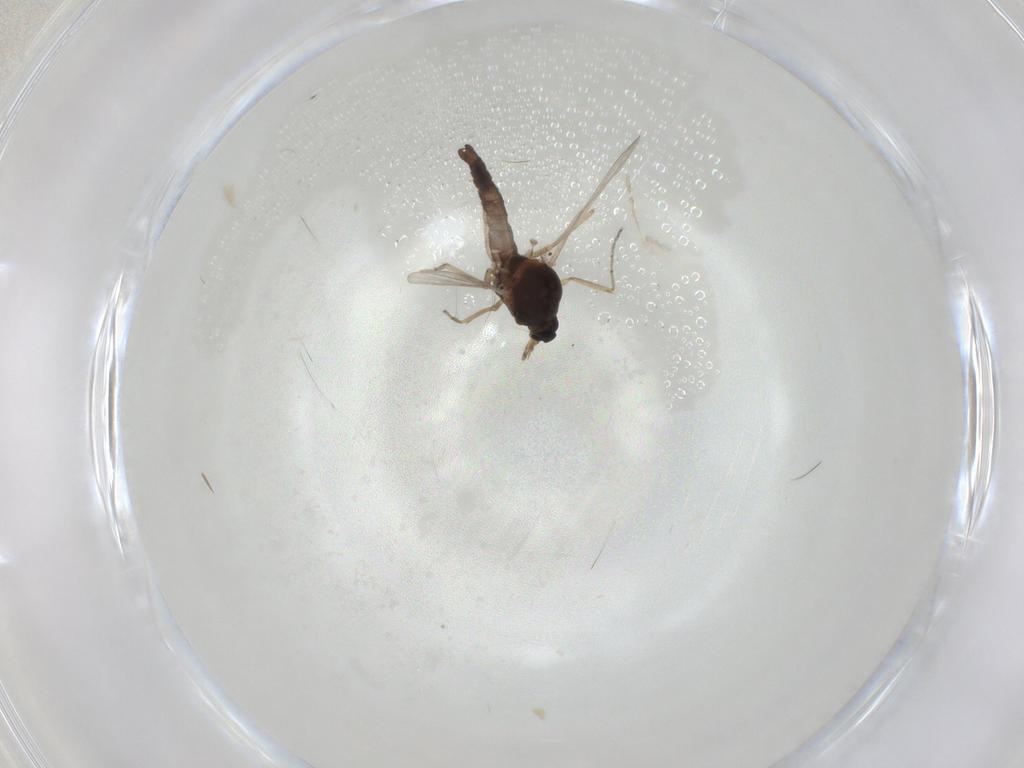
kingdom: Animalia
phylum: Arthropoda
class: Insecta
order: Diptera
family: Ceratopogonidae
